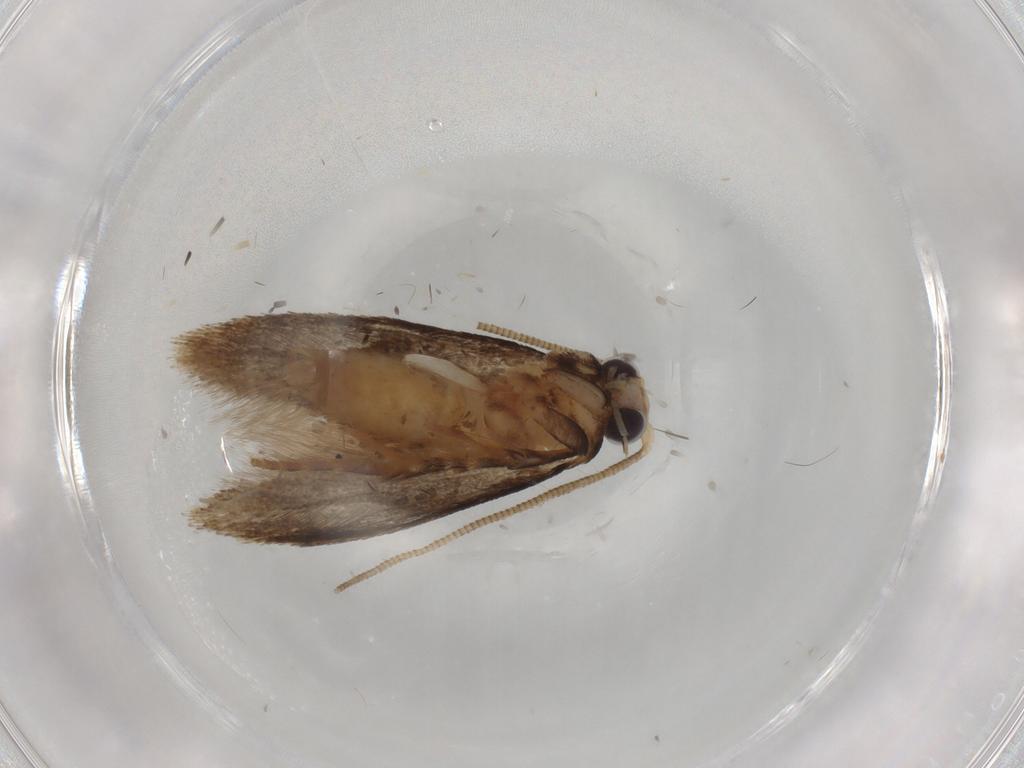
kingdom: Animalia
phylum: Arthropoda
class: Insecta
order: Lepidoptera
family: Tineidae
